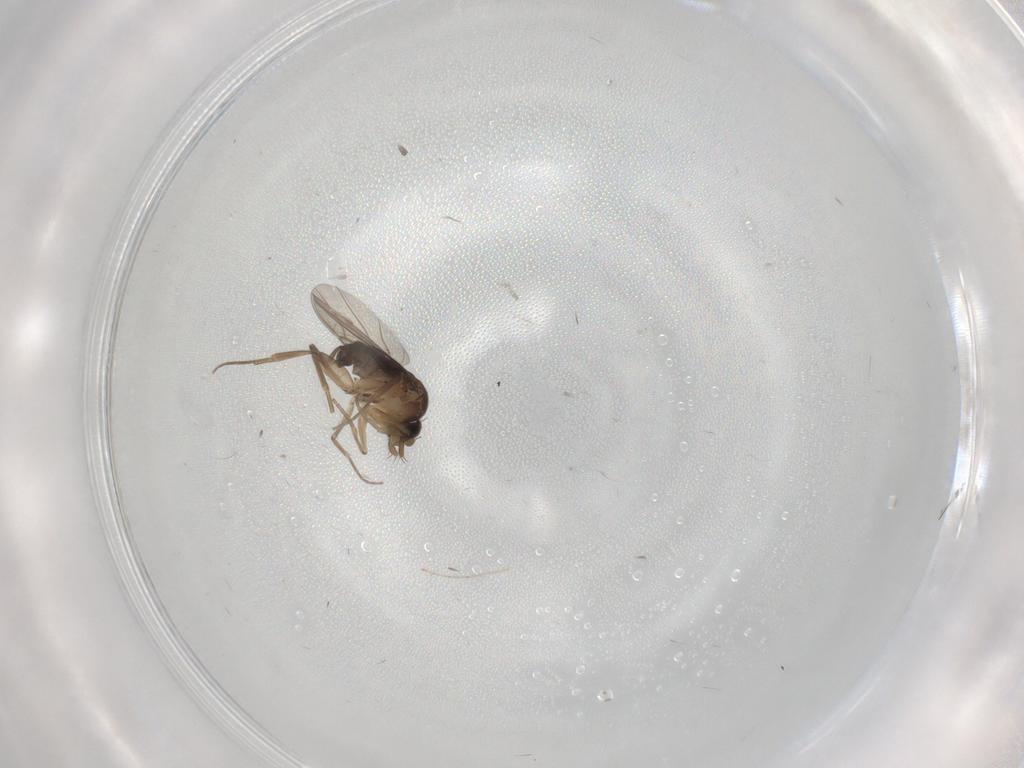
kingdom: Animalia
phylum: Arthropoda
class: Insecta
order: Diptera
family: Phoridae
